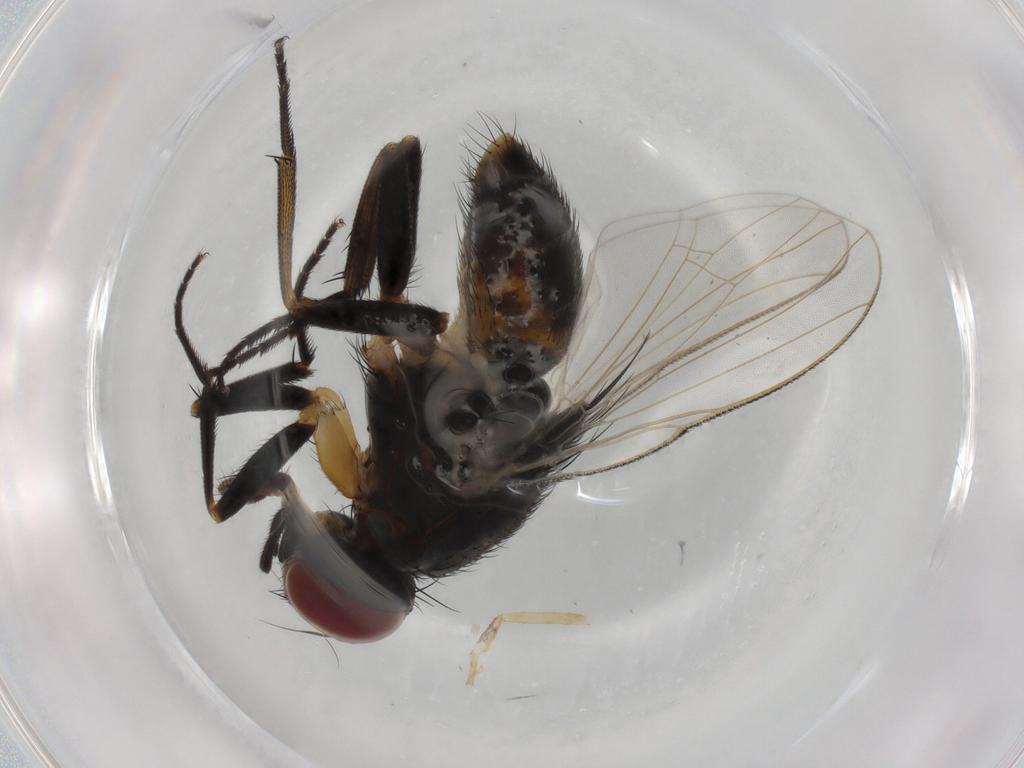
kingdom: Animalia
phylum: Arthropoda
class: Insecta
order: Diptera
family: Muscidae
